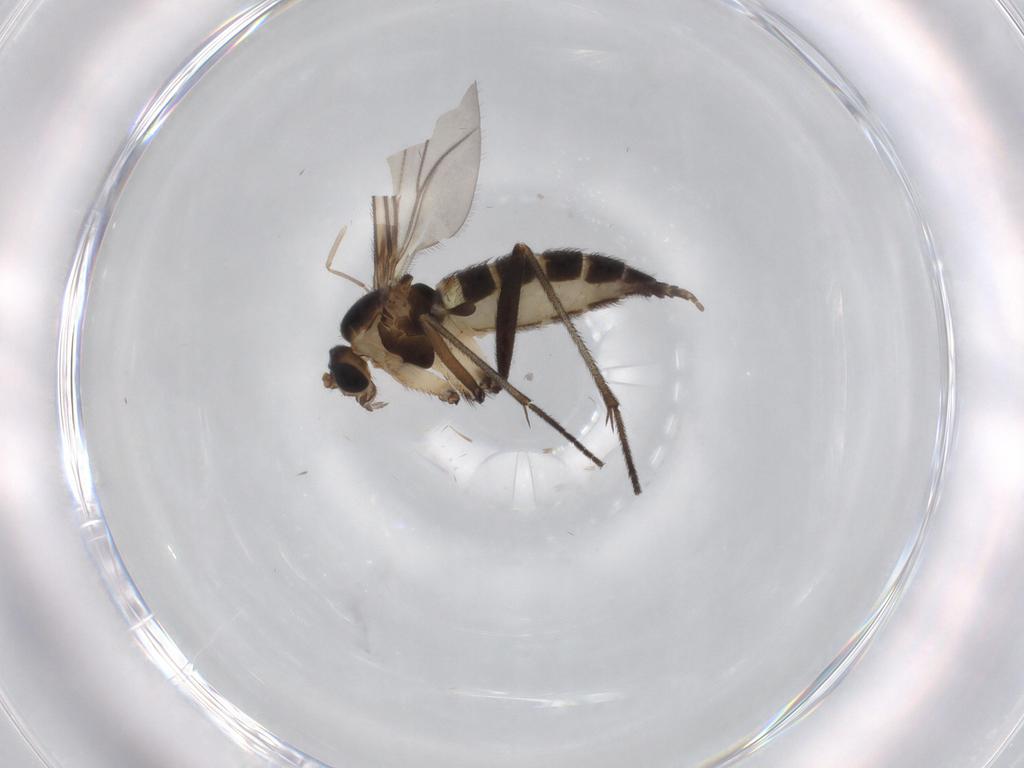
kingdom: Animalia
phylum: Arthropoda
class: Insecta
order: Diptera
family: Sciaridae
